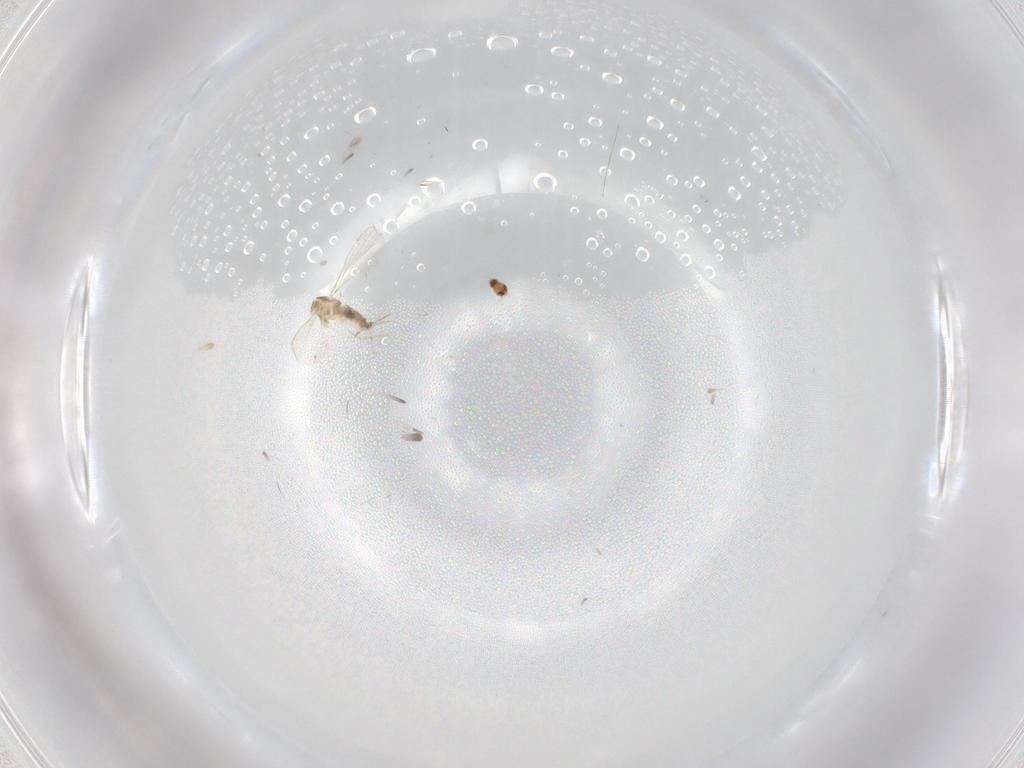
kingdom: Animalia
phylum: Arthropoda
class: Insecta
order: Diptera
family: Cecidomyiidae
